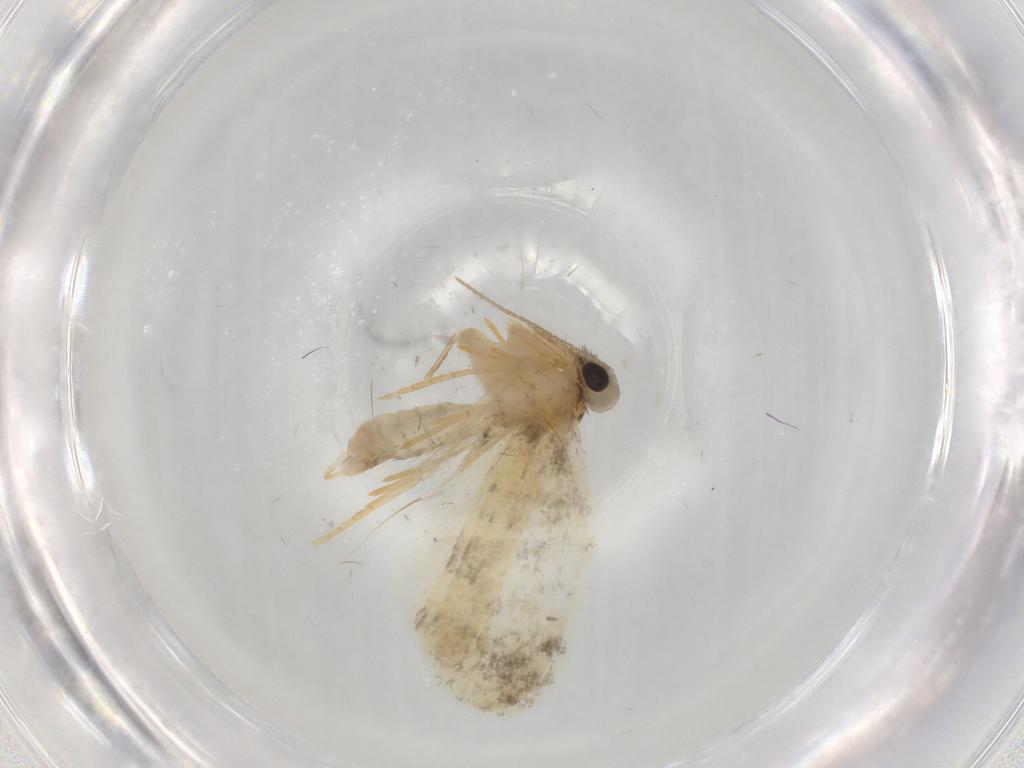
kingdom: Animalia
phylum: Arthropoda
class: Insecta
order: Lepidoptera
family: Psychidae
